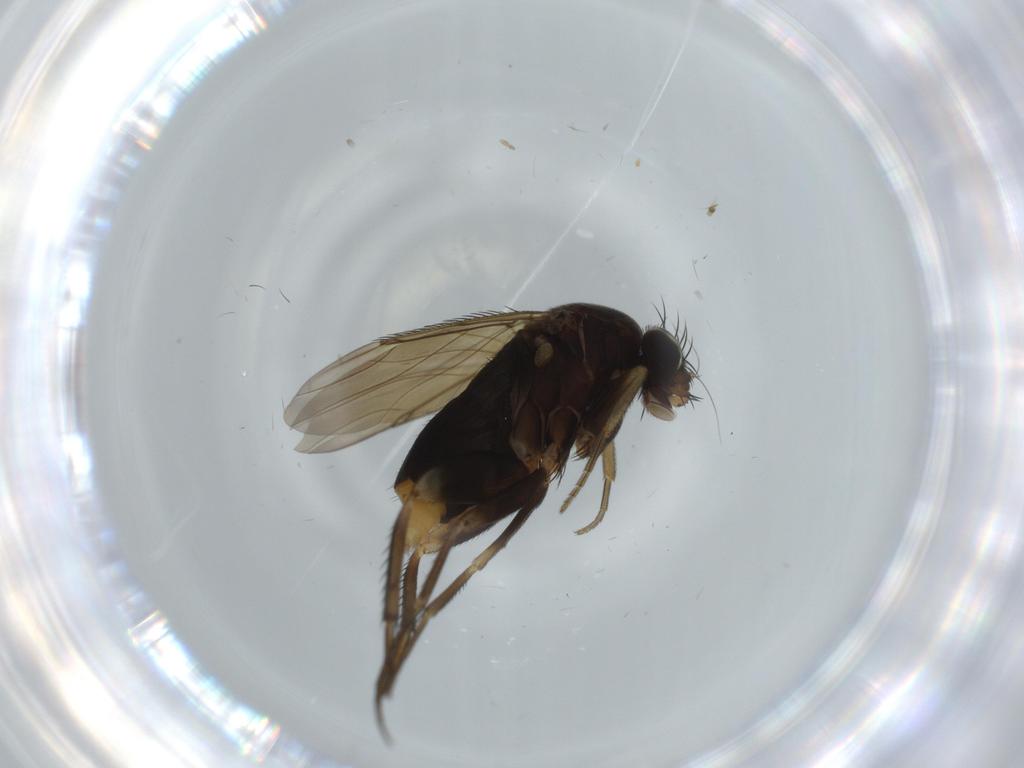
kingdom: Animalia
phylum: Arthropoda
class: Insecta
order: Diptera
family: Phoridae
